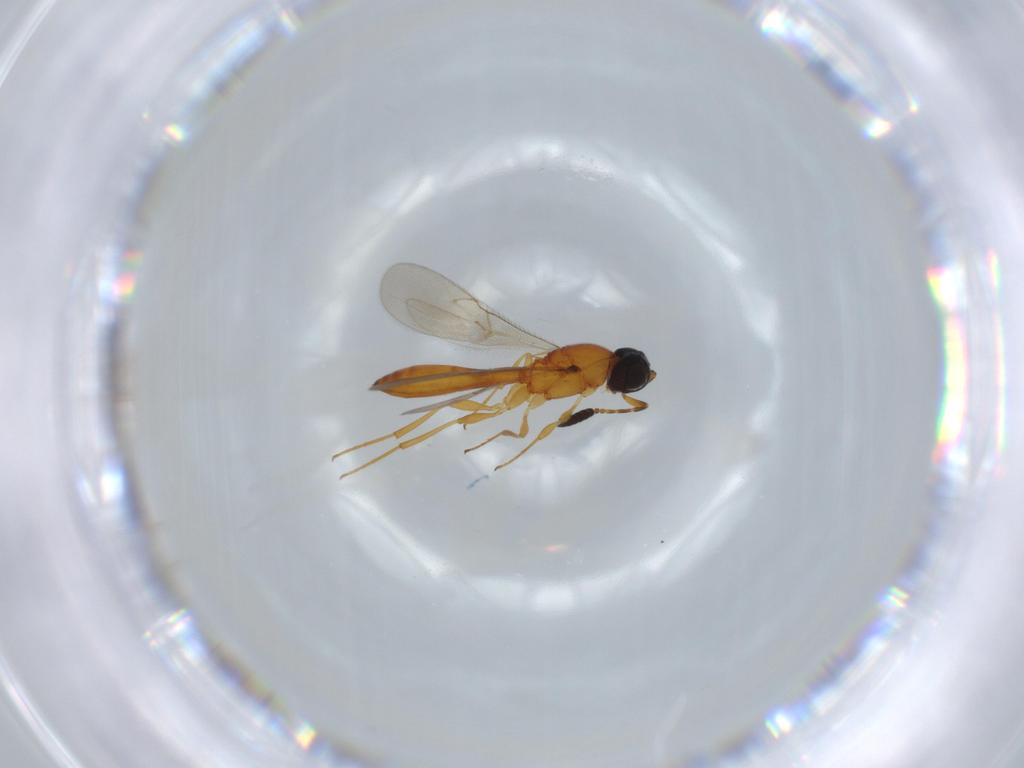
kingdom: Animalia
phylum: Arthropoda
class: Insecta
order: Hymenoptera
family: Scelionidae
